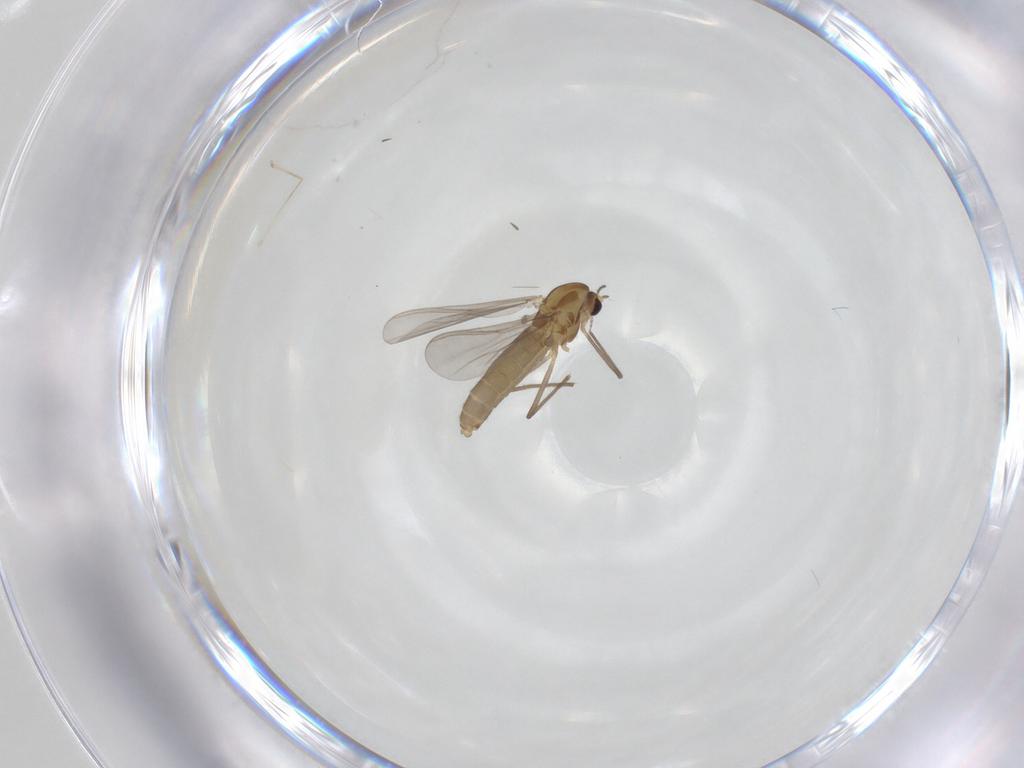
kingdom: Animalia
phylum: Arthropoda
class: Insecta
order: Diptera
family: Cecidomyiidae
